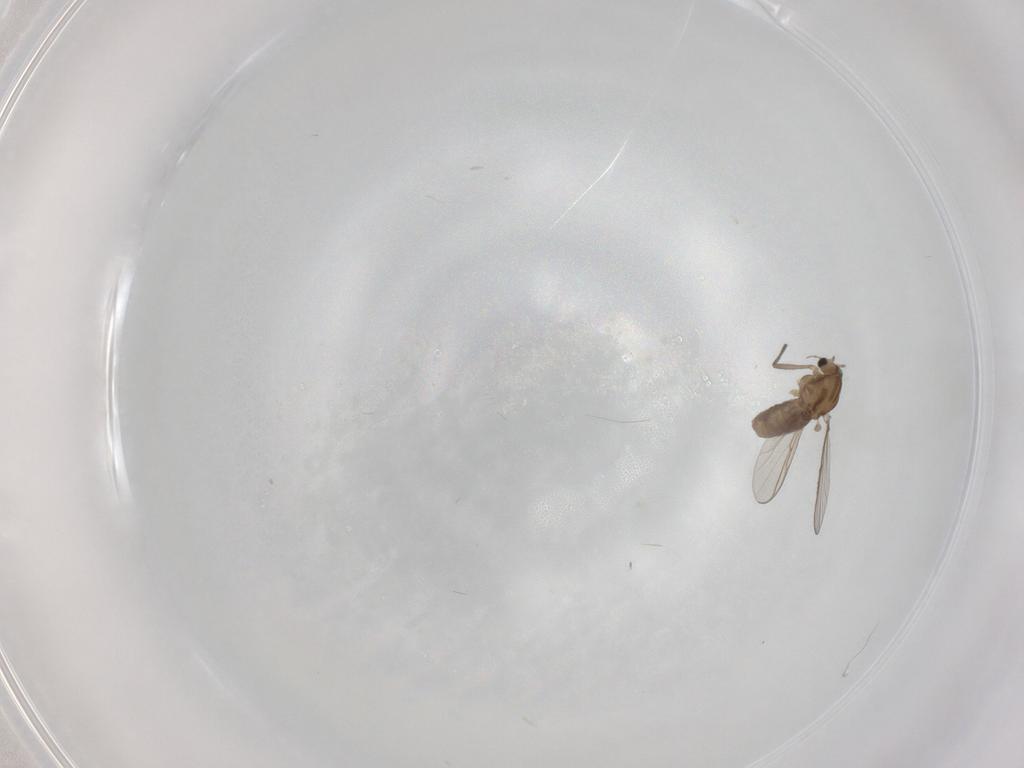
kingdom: Animalia
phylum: Arthropoda
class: Insecta
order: Diptera
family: Chironomidae
